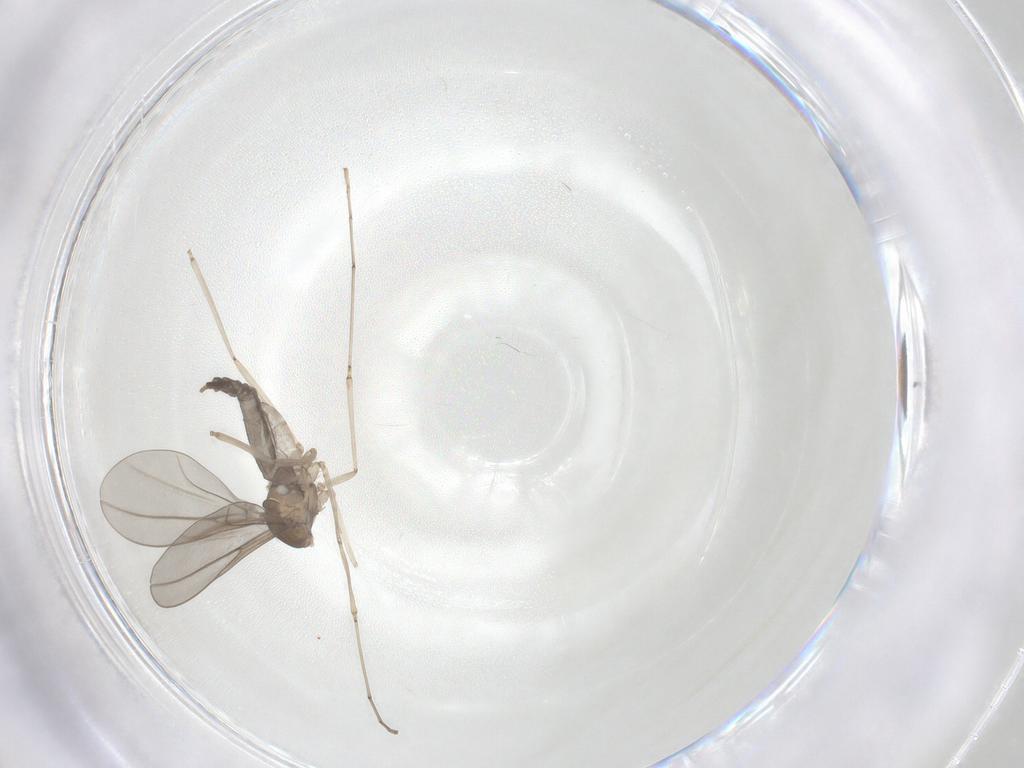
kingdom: Animalia
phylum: Arthropoda
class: Insecta
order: Diptera
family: Cecidomyiidae
